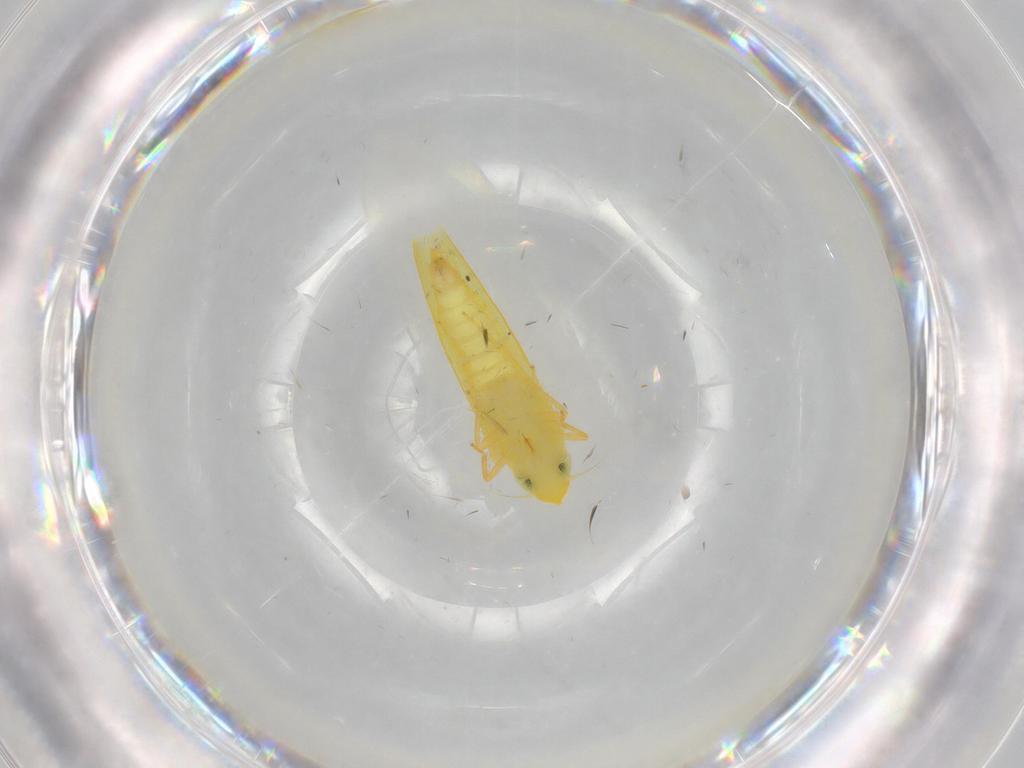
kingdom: Animalia
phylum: Arthropoda
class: Insecta
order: Hemiptera
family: Cicadellidae
